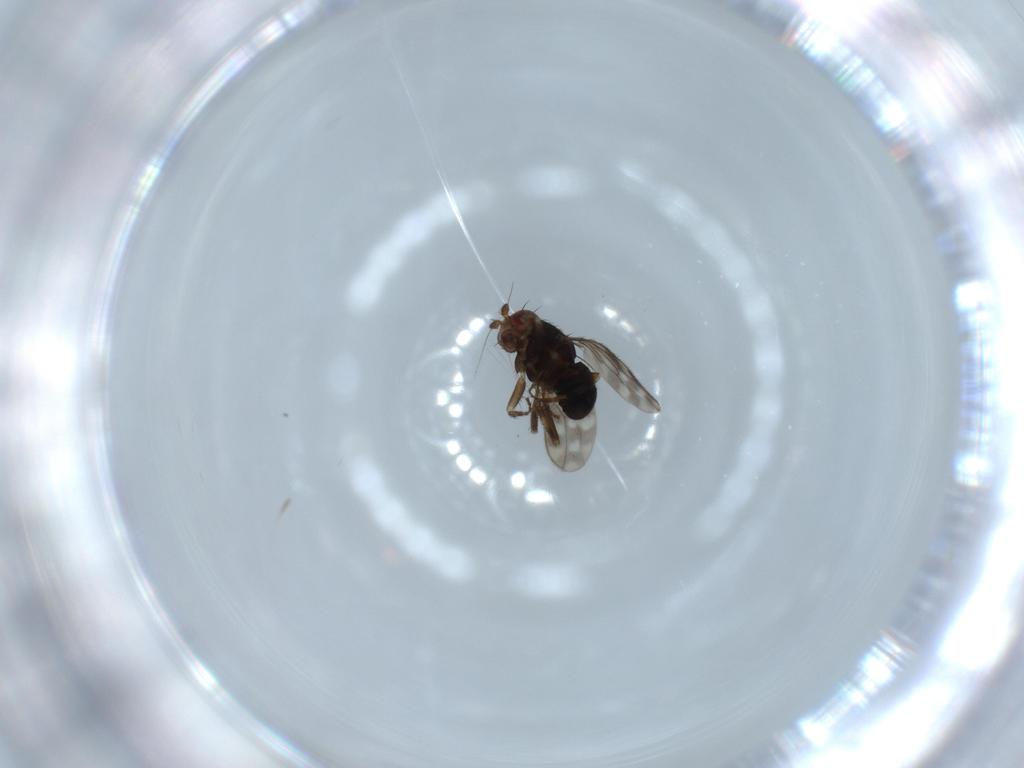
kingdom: Animalia
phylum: Arthropoda
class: Insecta
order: Diptera
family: Sphaeroceridae
